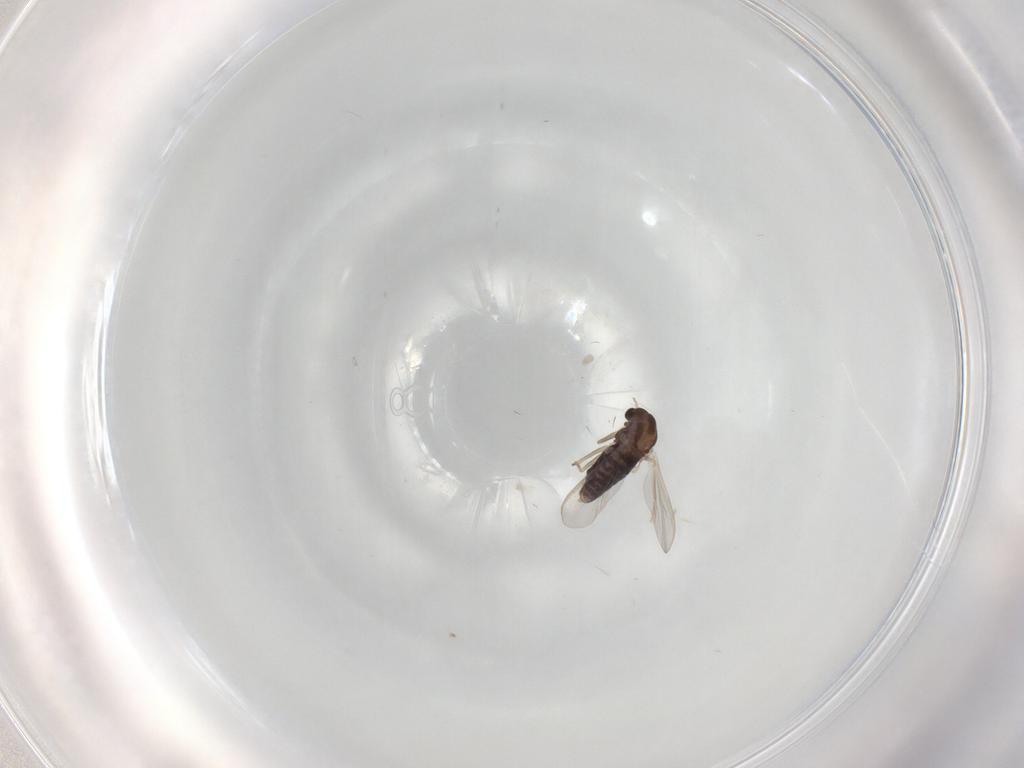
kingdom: Animalia
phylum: Arthropoda
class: Insecta
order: Diptera
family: Chironomidae
